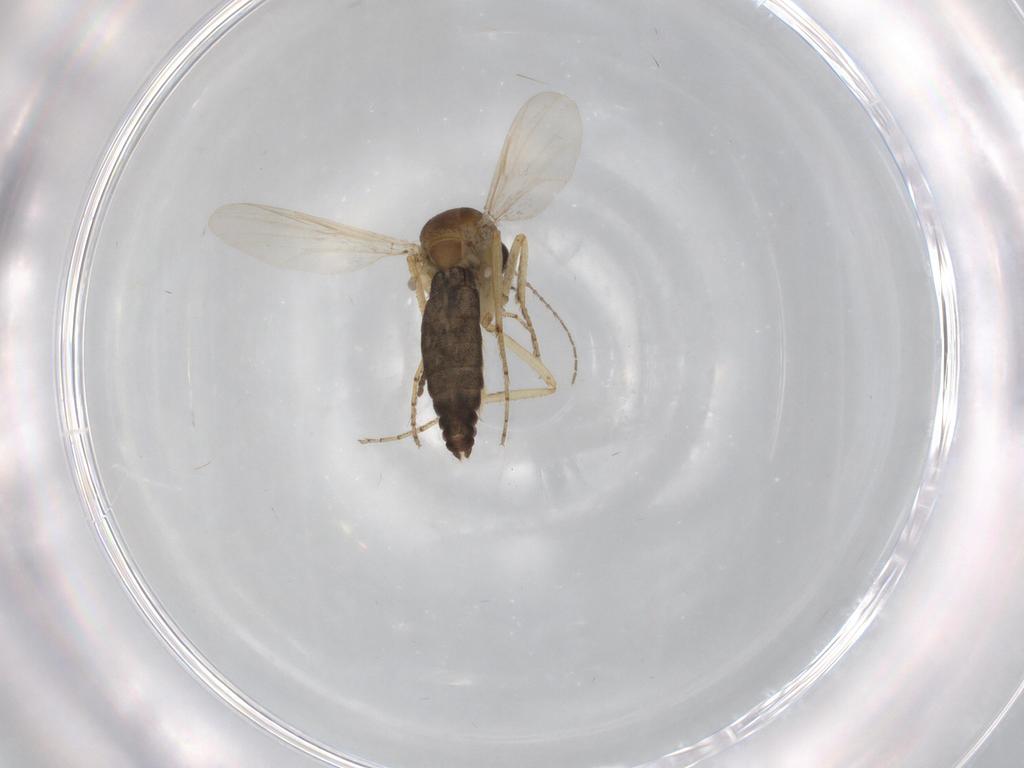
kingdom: Animalia
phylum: Arthropoda
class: Insecta
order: Diptera
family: Ceratopogonidae
